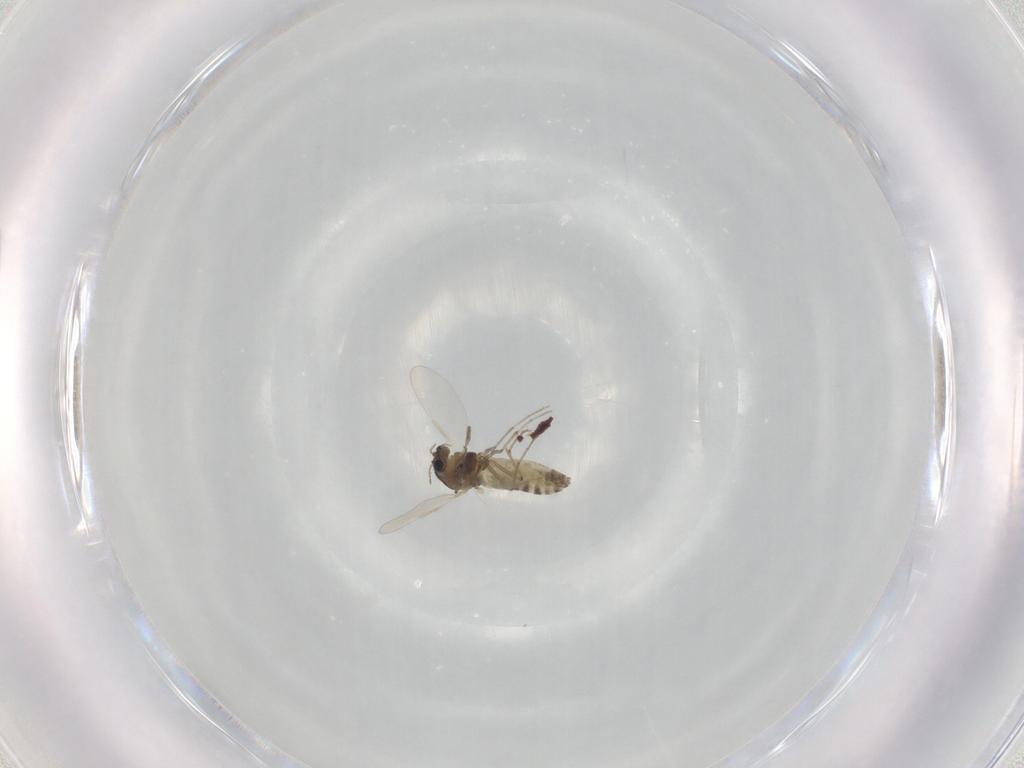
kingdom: Animalia
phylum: Arthropoda
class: Insecta
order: Diptera
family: Chironomidae
